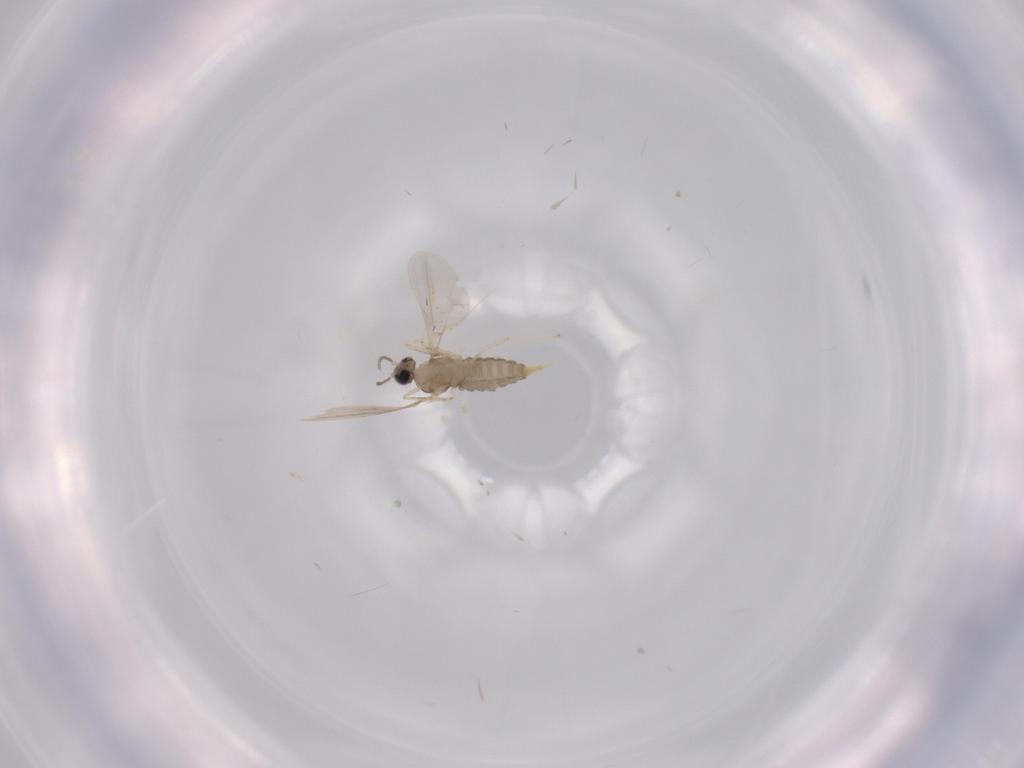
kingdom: Animalia
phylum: Arthropoda
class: Insecta
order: Diptera
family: Cecidomyiidae
